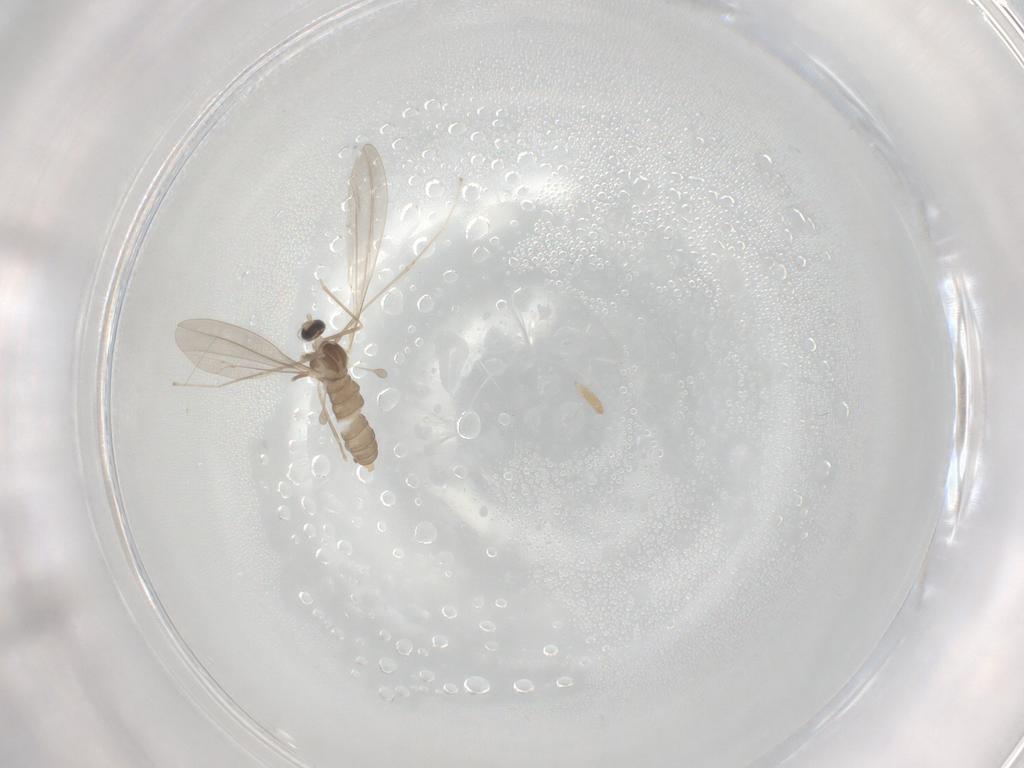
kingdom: Animalia
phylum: Arthropoda
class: Insecta
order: Diptera
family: Cecidomyiidae
